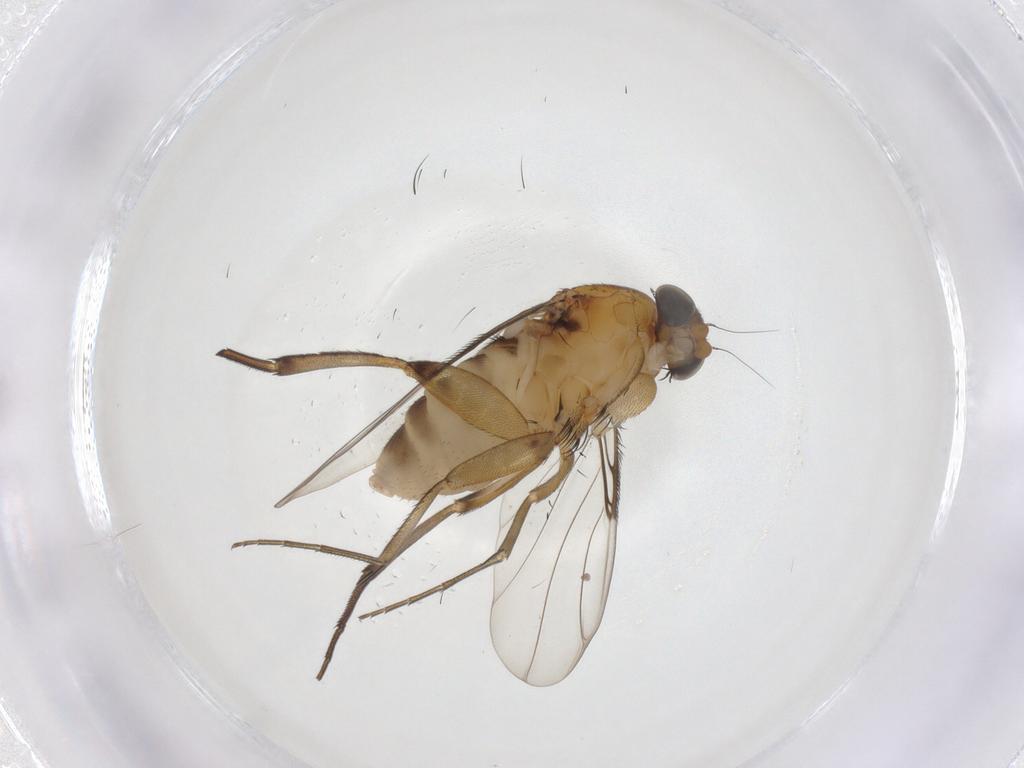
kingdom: Animalia
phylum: Arthropoda
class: Insecta
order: Diptera
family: Phoridae
